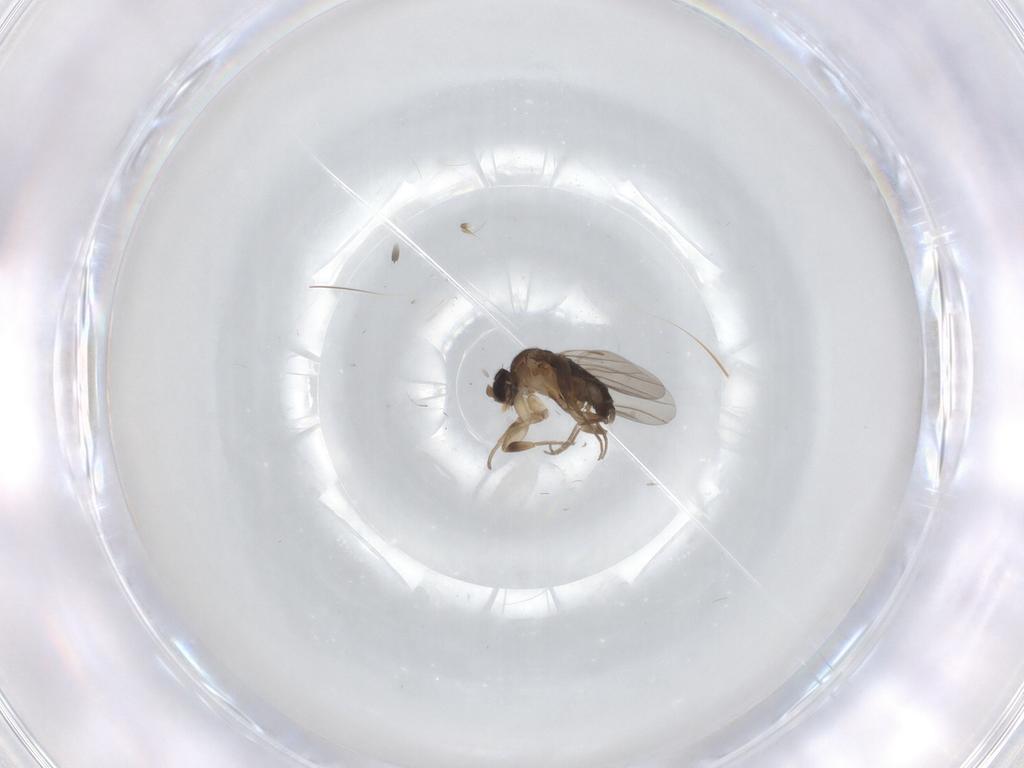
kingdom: Animalia
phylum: Arthropoda
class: Insecta
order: Diptera
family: Phoridae
